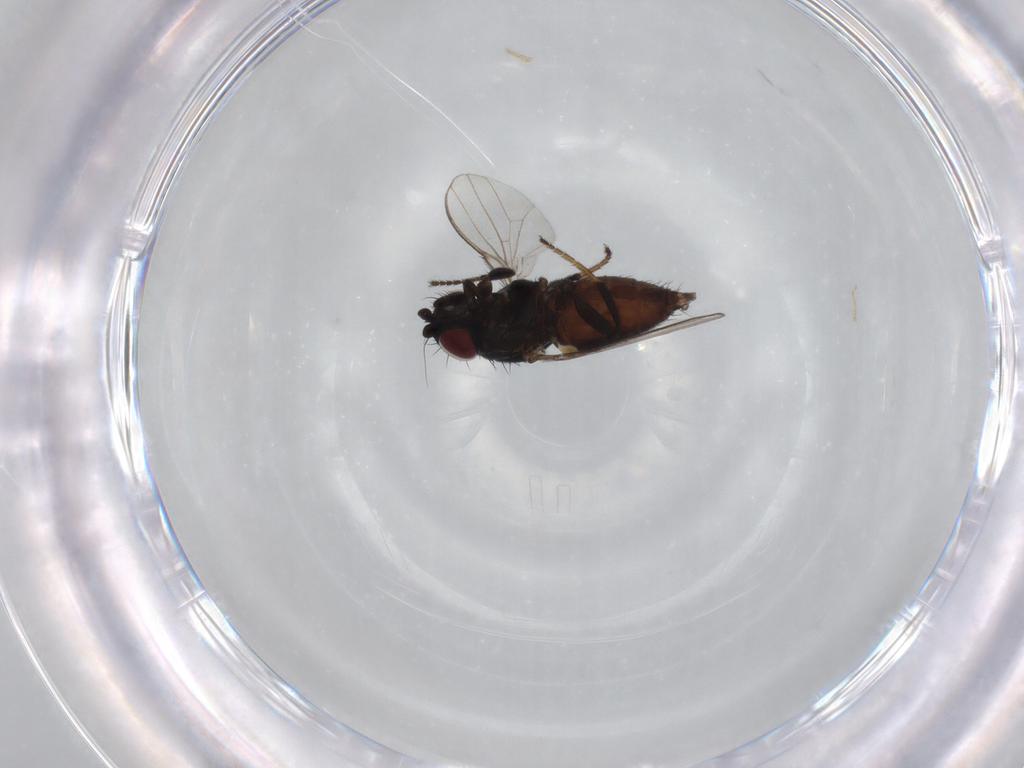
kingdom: Animalia
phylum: Arthropoda
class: Insecta
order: Diptera
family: Milichiidae
